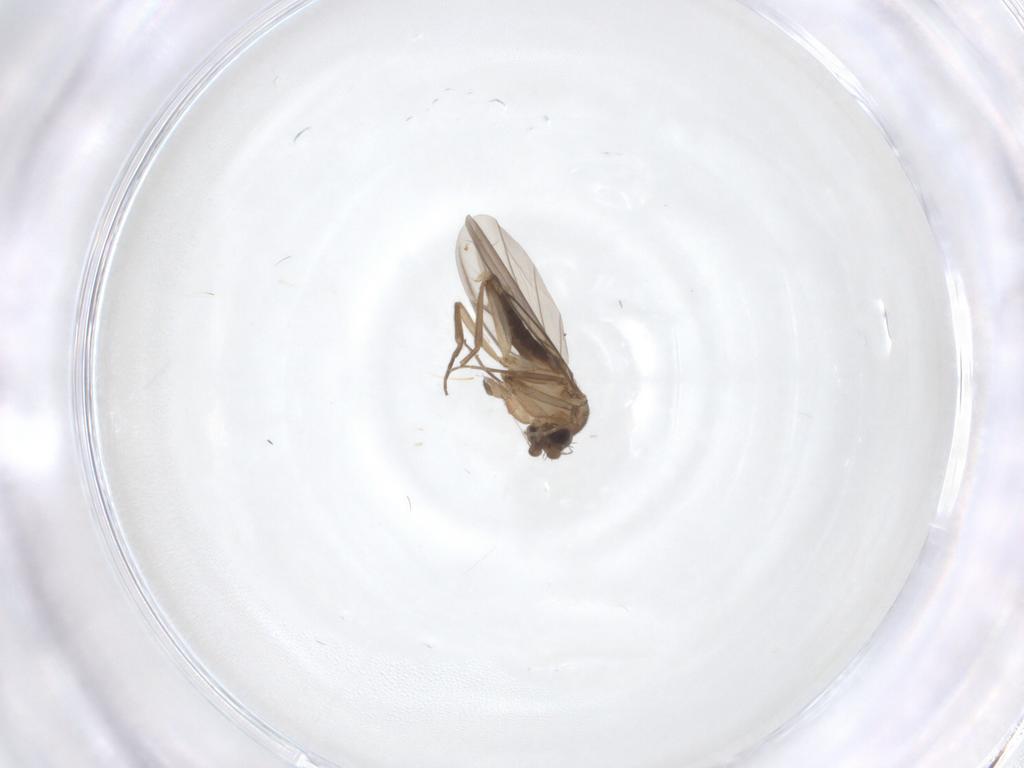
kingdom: Animalia
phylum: Arthropoda
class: Insecta
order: Diptera
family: Phoridae
